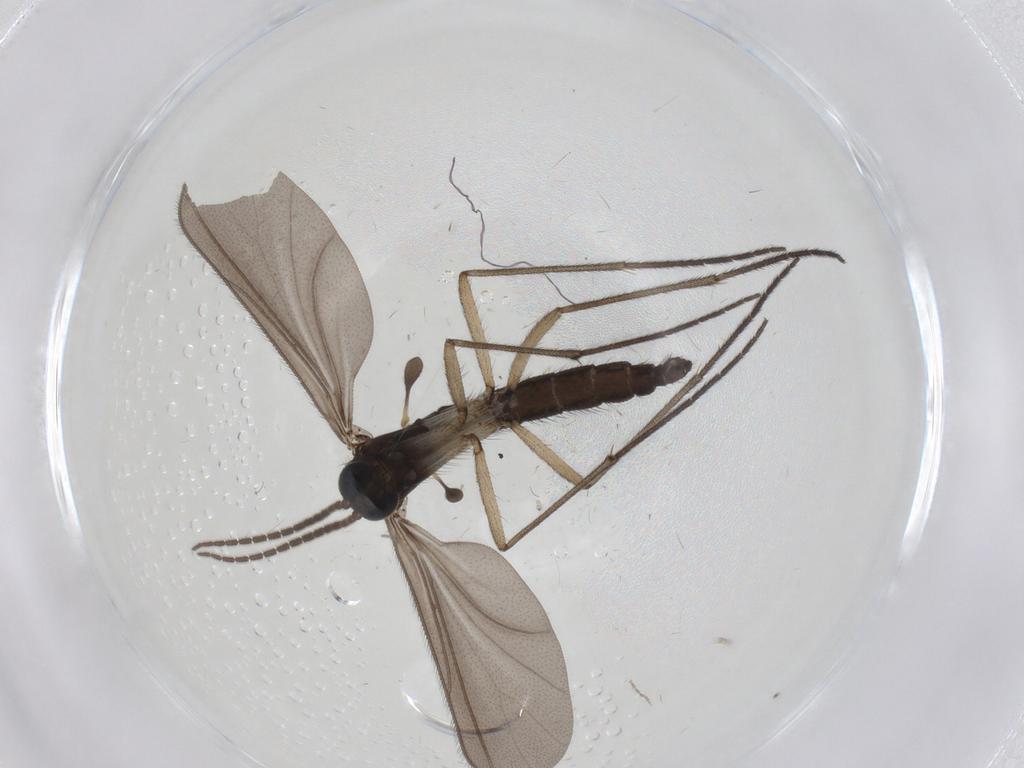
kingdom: Animalia
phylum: Arthropoda
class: Insecta
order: Diptera
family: Sciaridae
